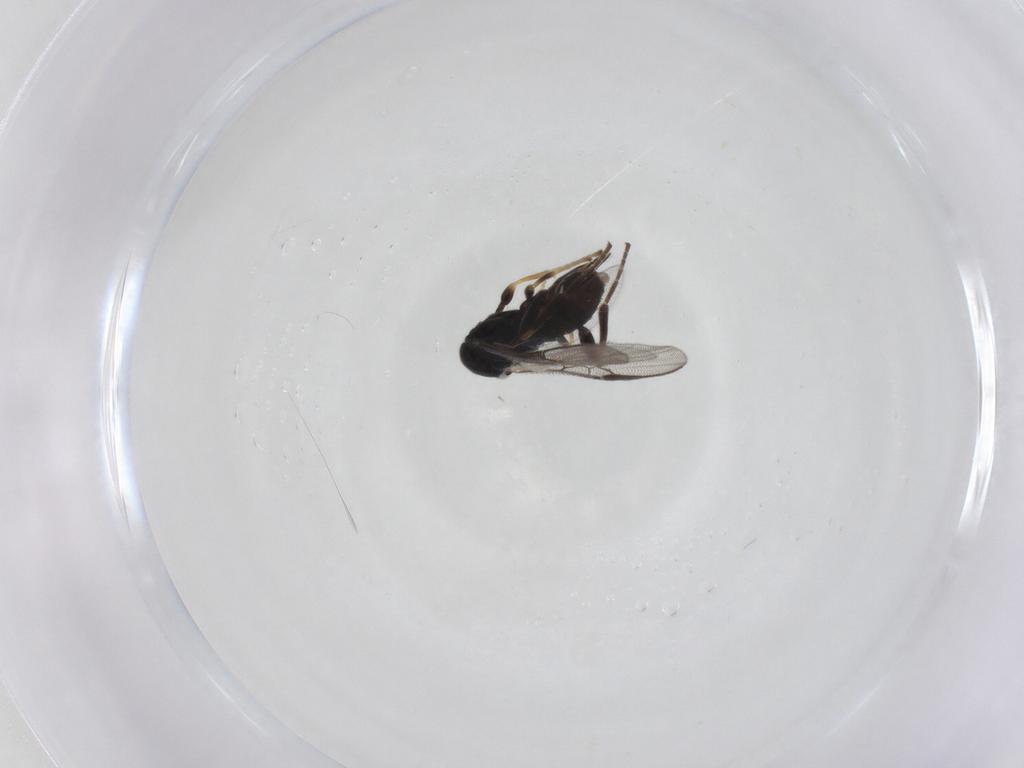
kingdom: Animalia
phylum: Arthropoda
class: Insecta
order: Hymenoptera
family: Braconidae
